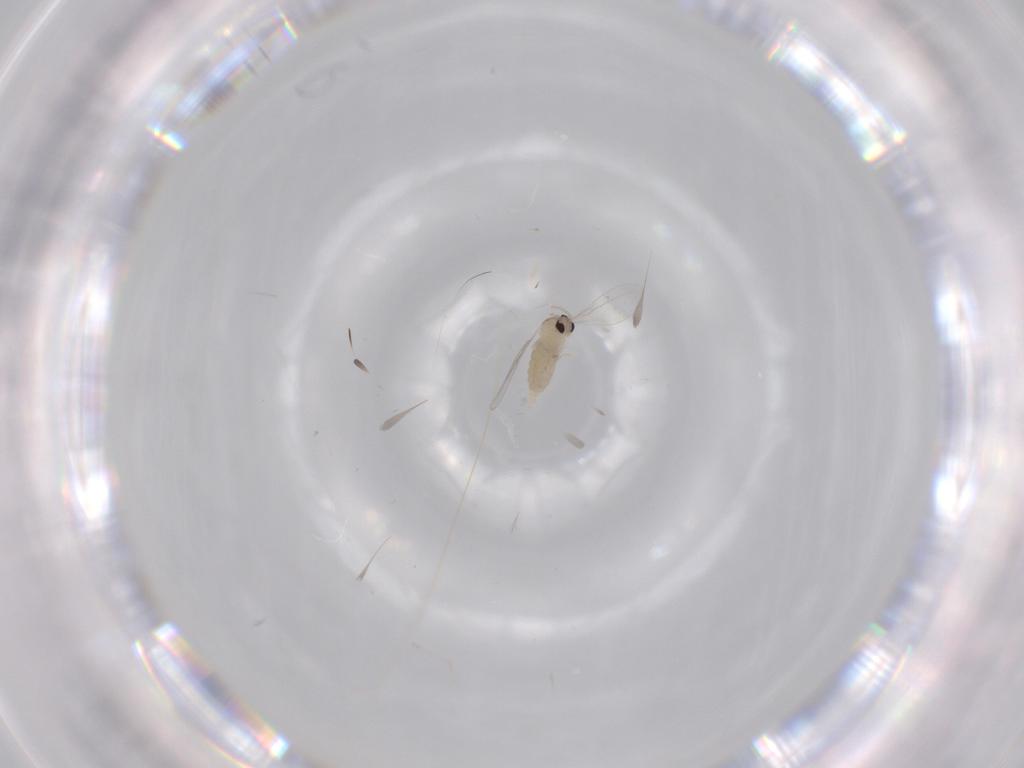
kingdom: Animalia
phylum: Arthropoda
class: Insecta
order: Diptera
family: Cecidomyiidae
